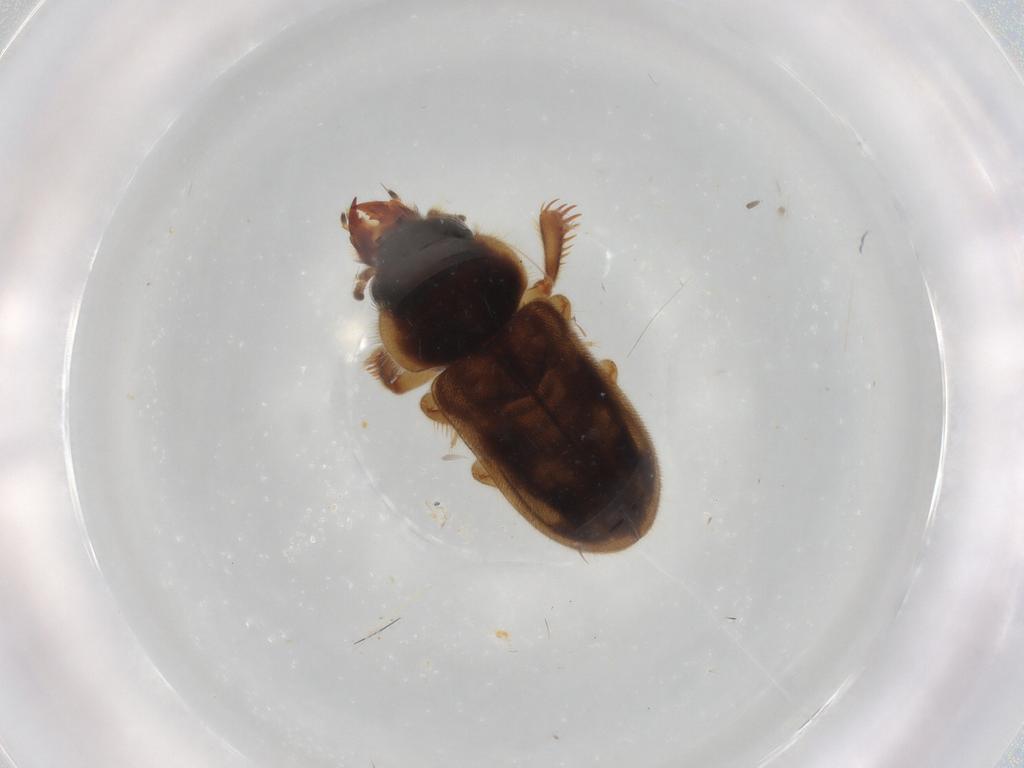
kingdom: Animalia
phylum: Arthropoda
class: Insecta
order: Coleoptera
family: Heteroceridae
